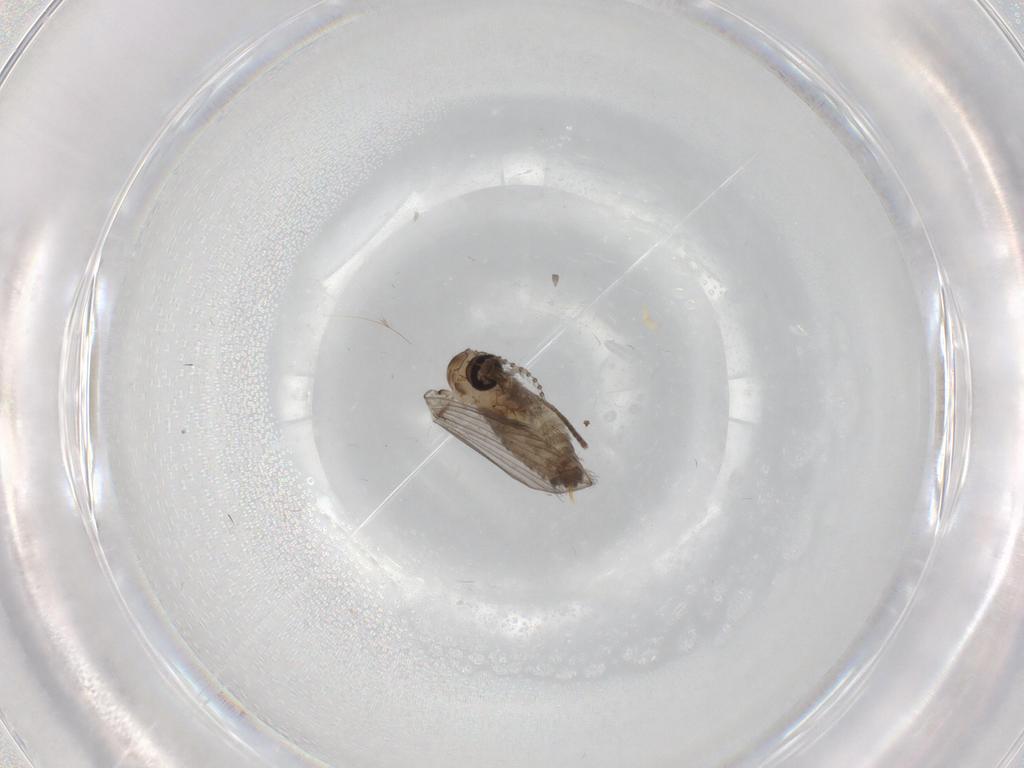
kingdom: Animalia
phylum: Arthropoda
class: Insecta
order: Diptera
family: Psychodidae
